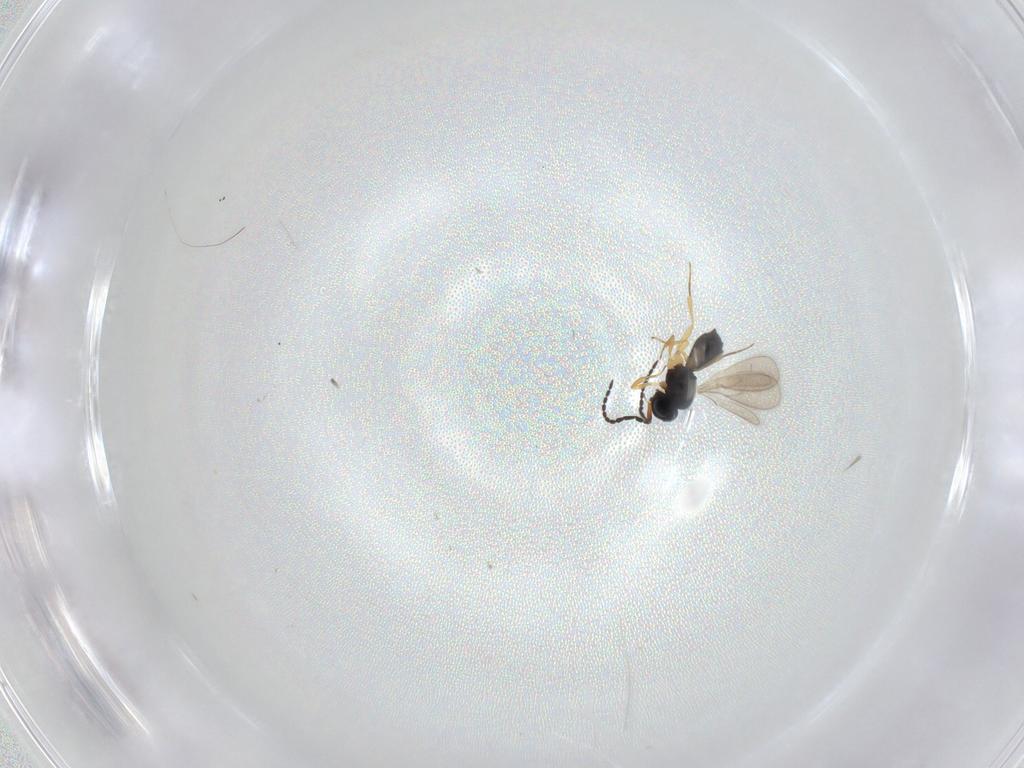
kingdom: Animalia
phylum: Arthropoda
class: Insecta
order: Hymenoptera
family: Scelionidae
